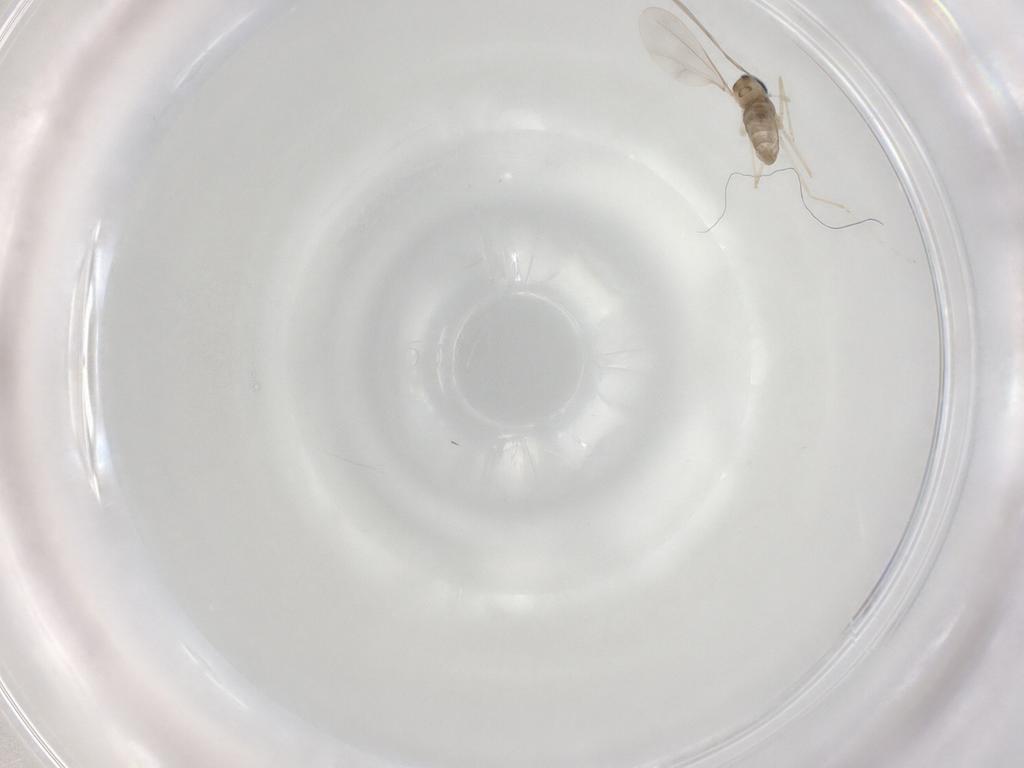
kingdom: Animalia
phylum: Arthropoda
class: Insecta
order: Diptera
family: Cecidomyiidae
